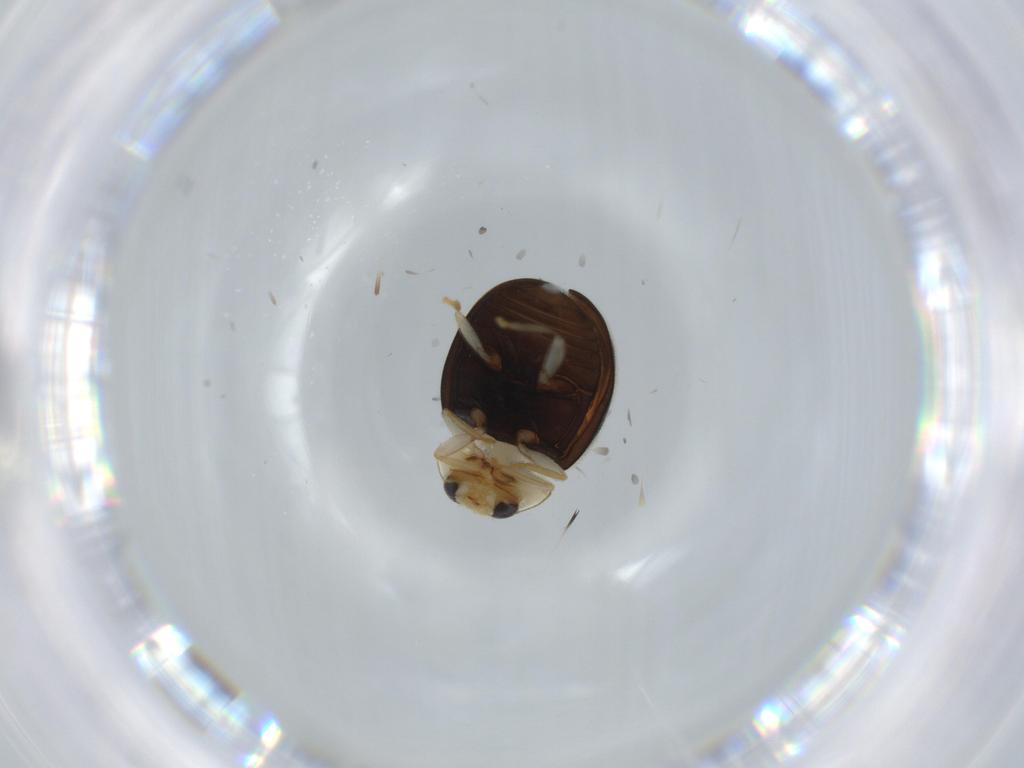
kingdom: Animalia
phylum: Arthropoda
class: Insecta
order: Coleoptera
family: Coccinellidae
